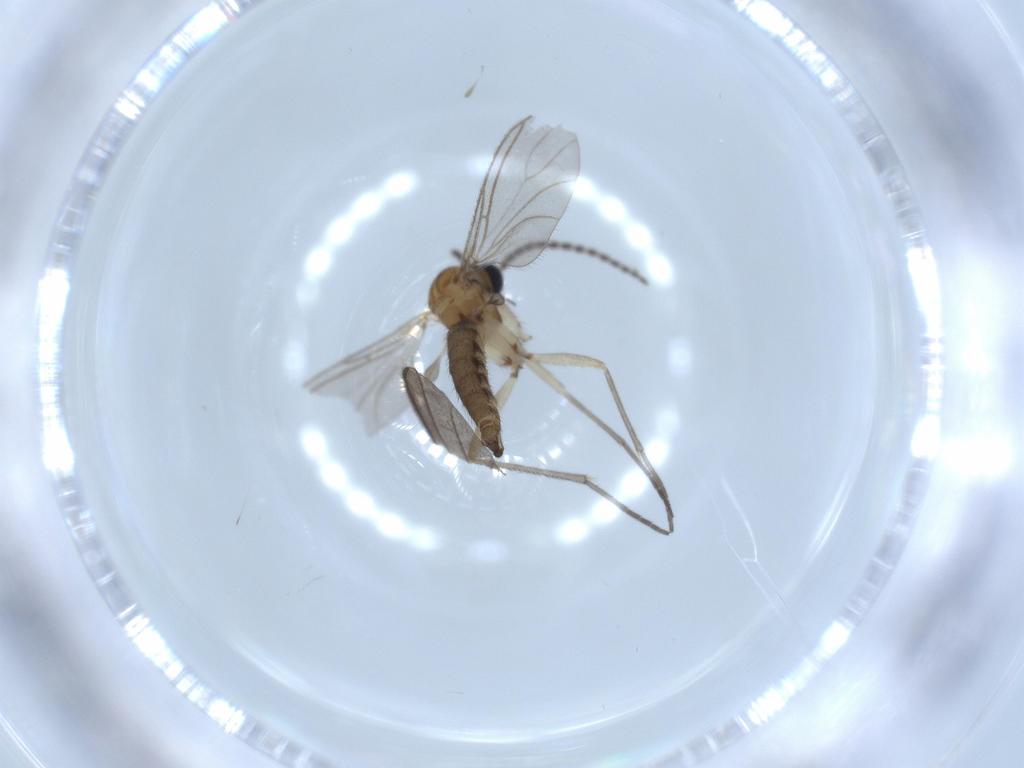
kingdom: Animalia
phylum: Arthropoda
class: Insecta
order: Diptera
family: Sciaridae
